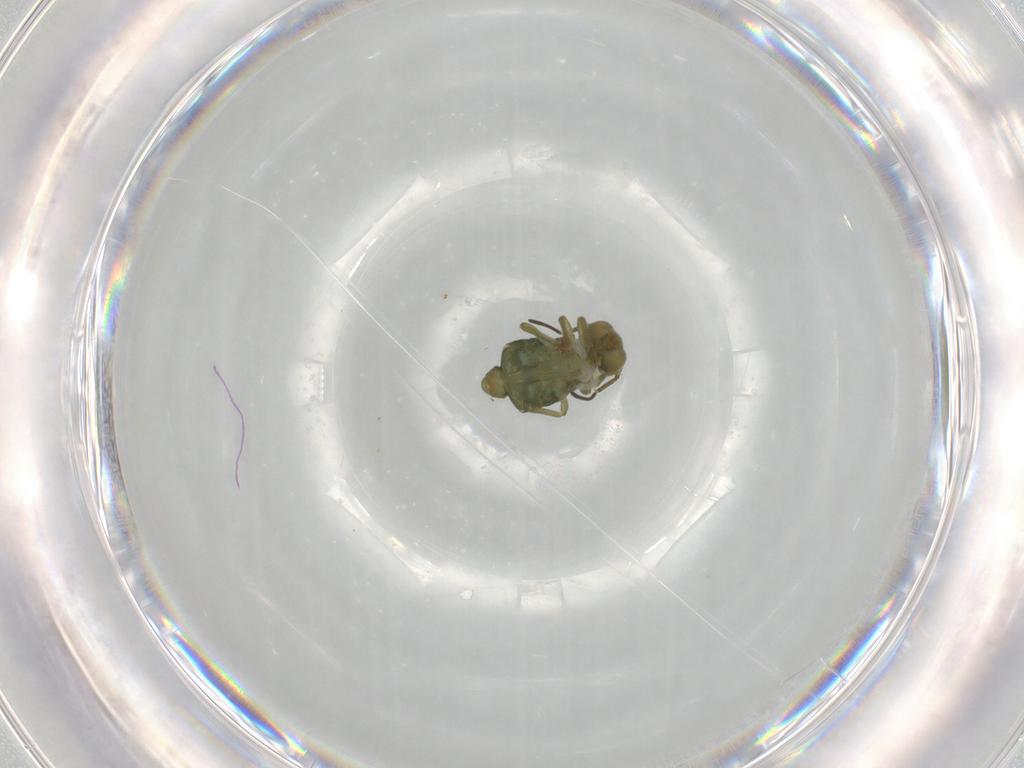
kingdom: Animalia
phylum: Arthropoda
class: Collembola
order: Symphypleona
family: Sminthuridae
